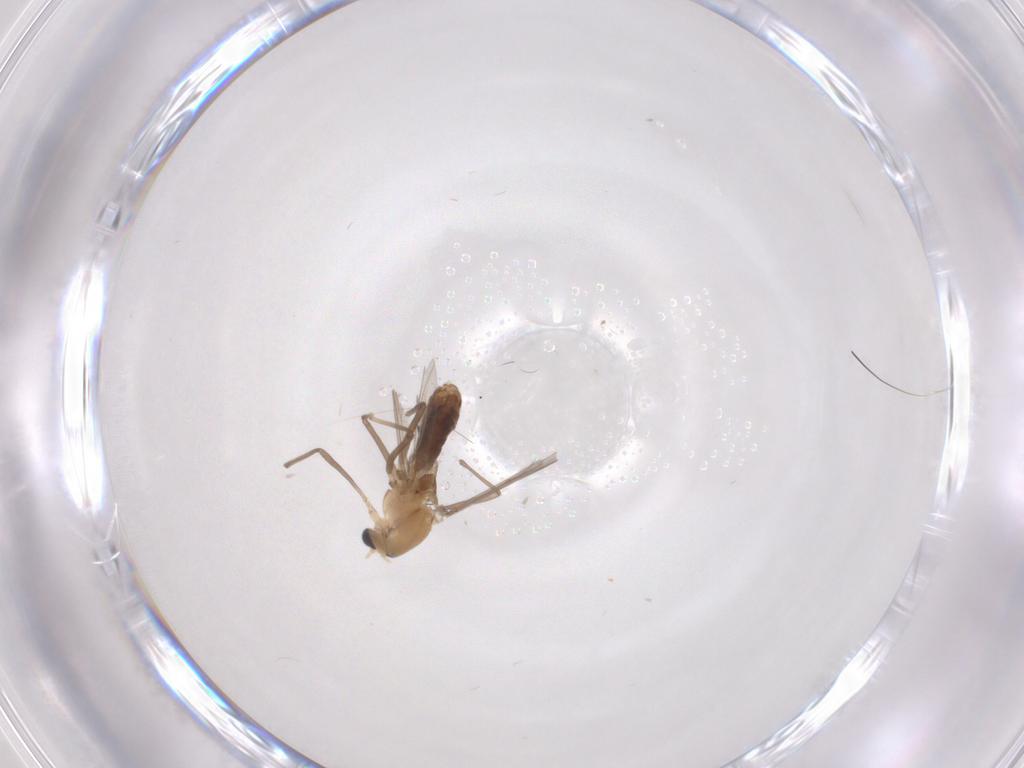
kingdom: Animalia
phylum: Arthropoda
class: Insecta
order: Diptera
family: Chironomidae
